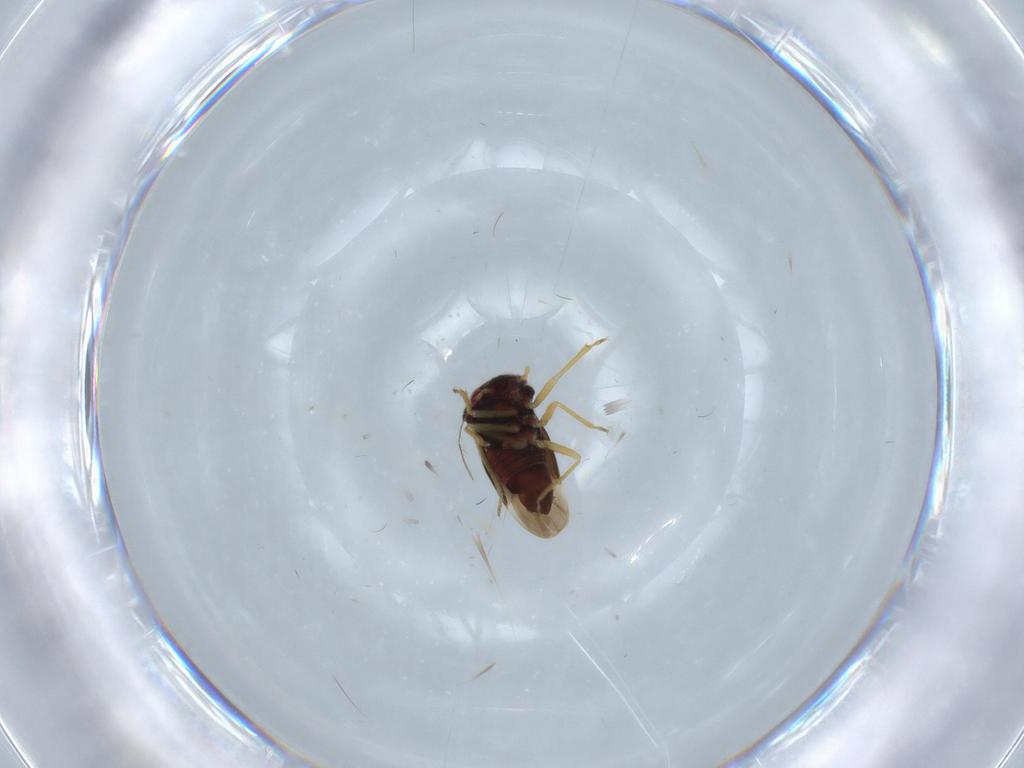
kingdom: Animalia
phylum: Arthropoda
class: Insecta
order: Hemiptera
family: Schizopteridae
